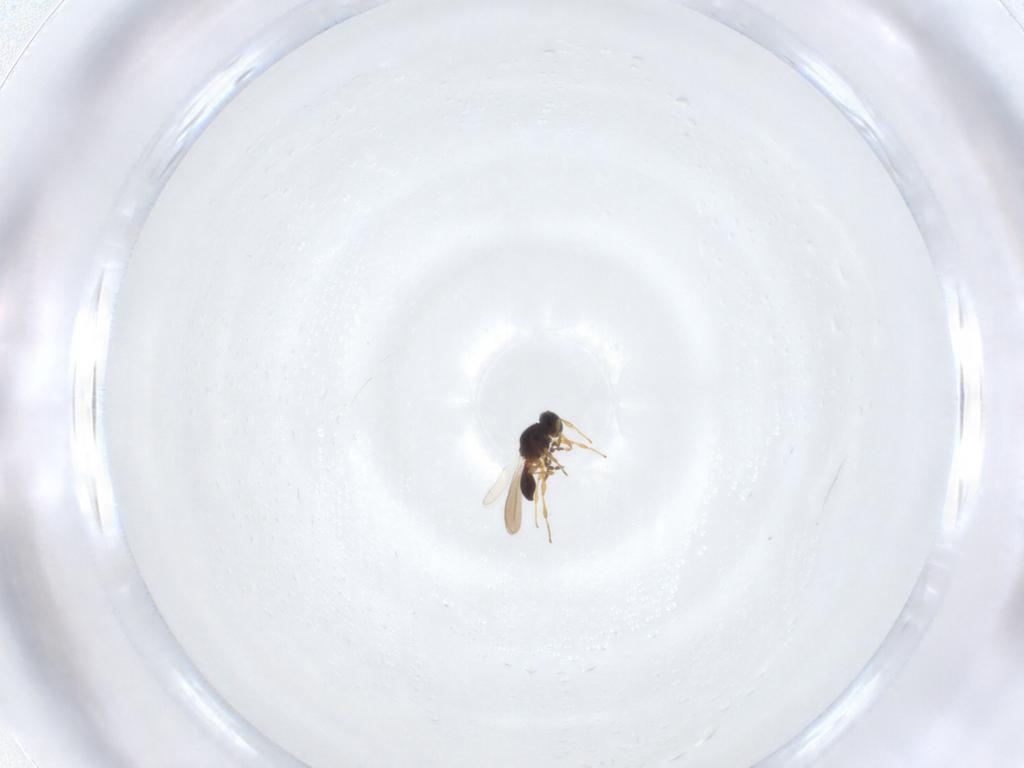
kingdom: Animalia
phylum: Arthropoda
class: Insecta
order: Hymenoptera
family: Platygastridae
